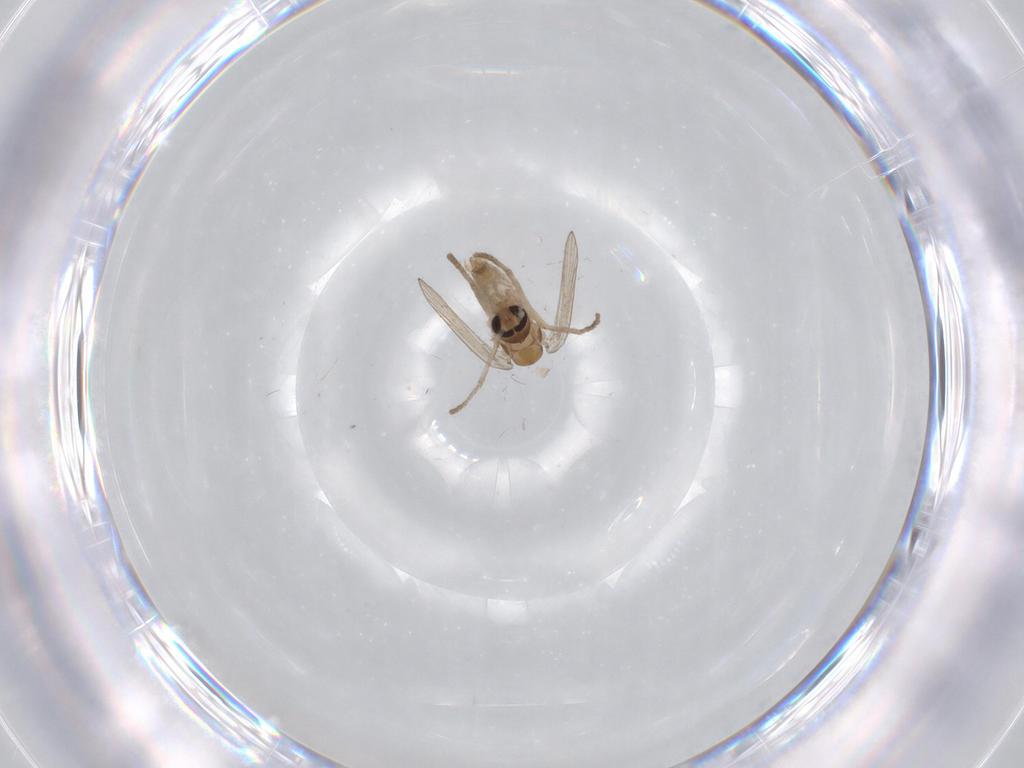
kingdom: Animalia
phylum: Arthropoda
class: Insecta
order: Diptera
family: Psychodidae
